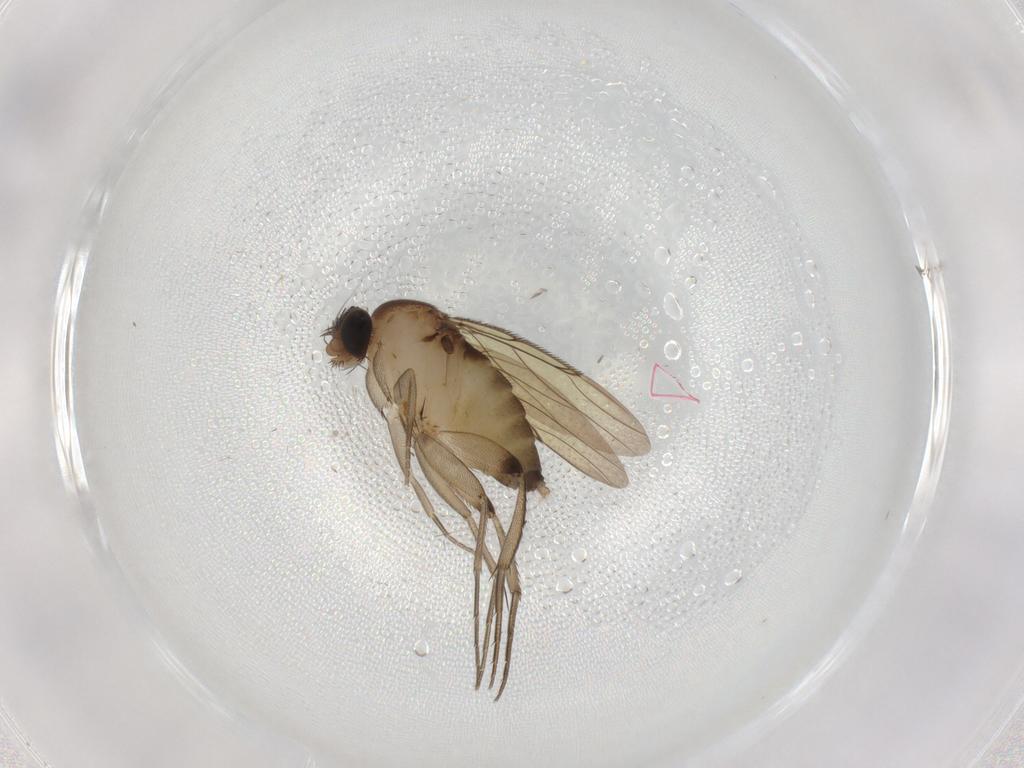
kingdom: Animalia
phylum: Arthropoda
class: Insecta
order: Diptera
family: Phoridae
